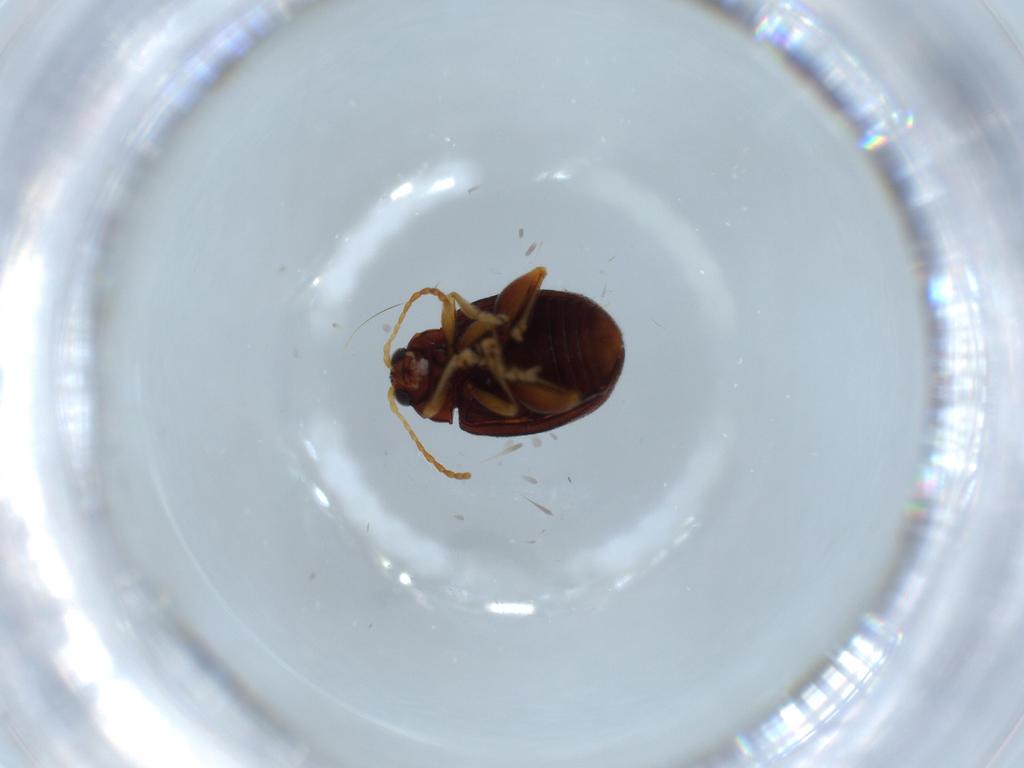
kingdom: Animalia
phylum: Arthropoda
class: Insecta
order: Coleoptera
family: Chrysomelidae
